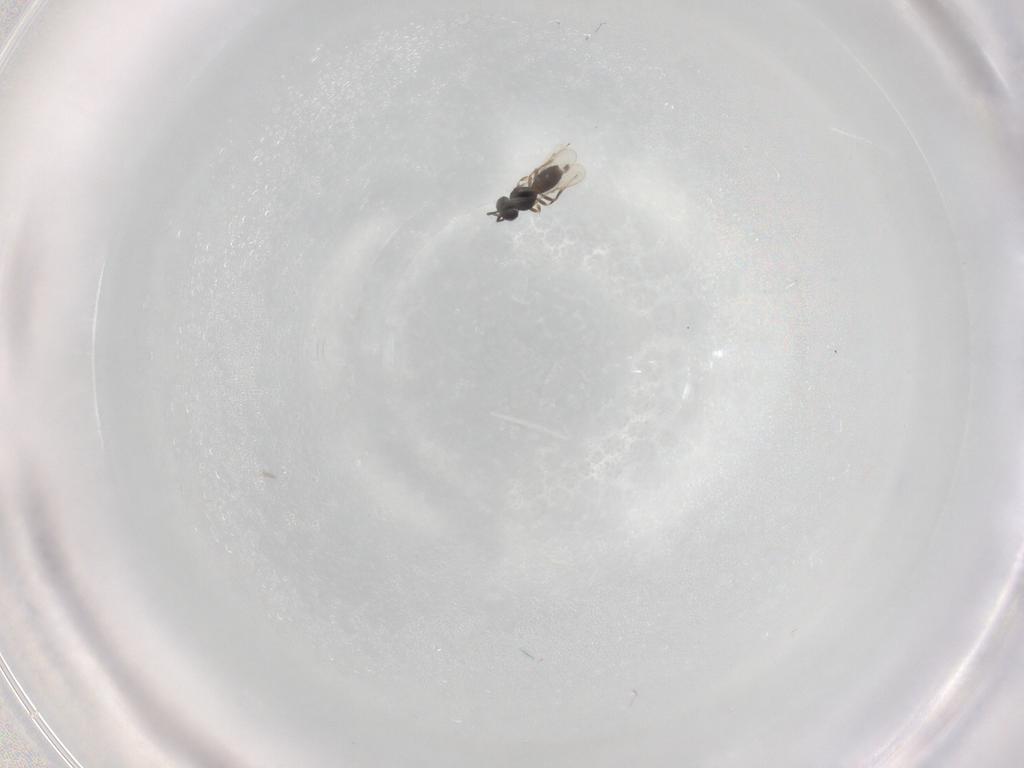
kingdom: Animalia
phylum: Arthropoda
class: Insecta
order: Hymenoptera
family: Scelionidae
